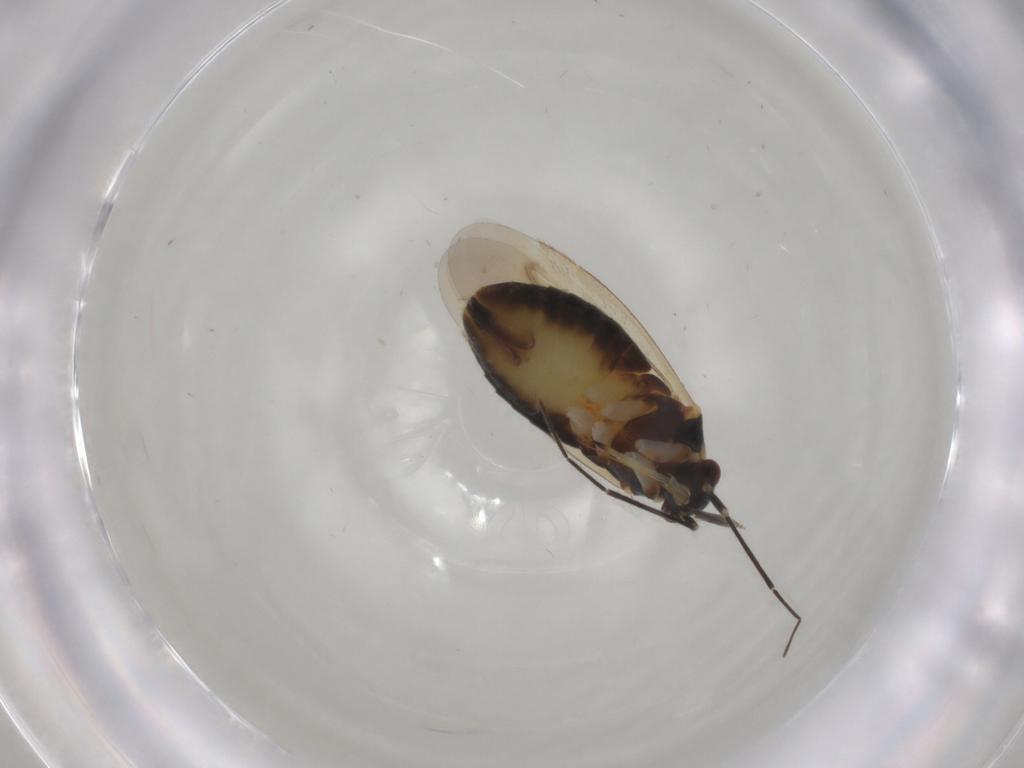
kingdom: Animalia
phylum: Arthropoda
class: Insecta
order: Hemiptera
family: Miridae
